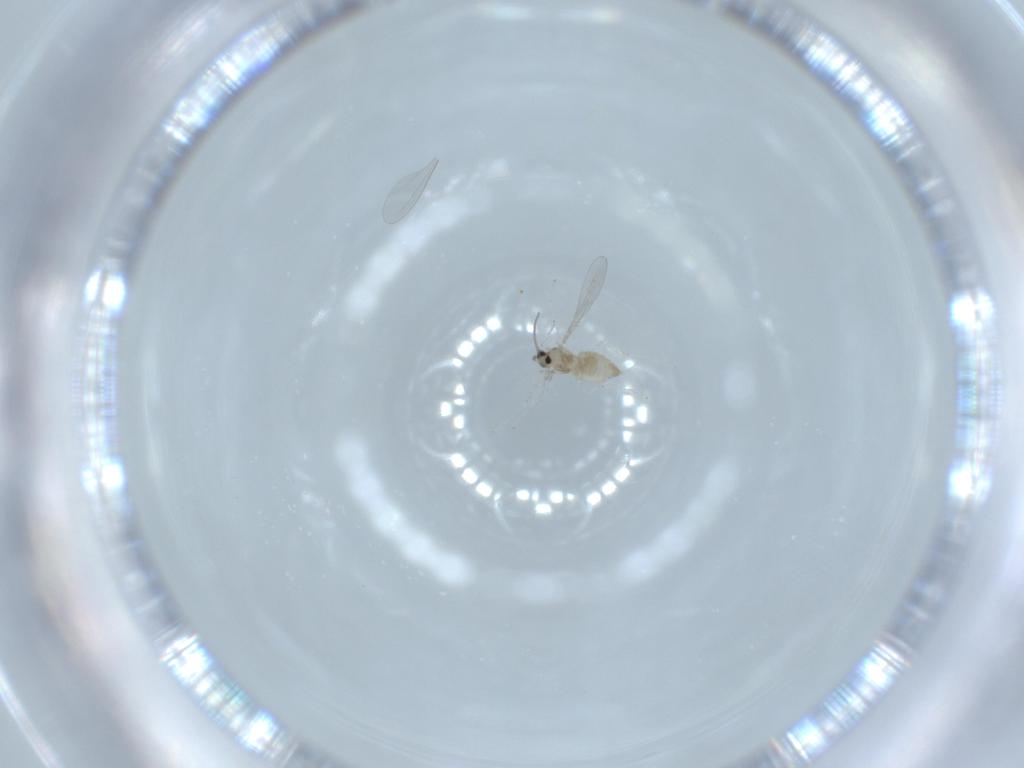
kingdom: Animalia
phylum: Arthropoda
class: Insecta
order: Diptera
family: Cecidomyiidae
